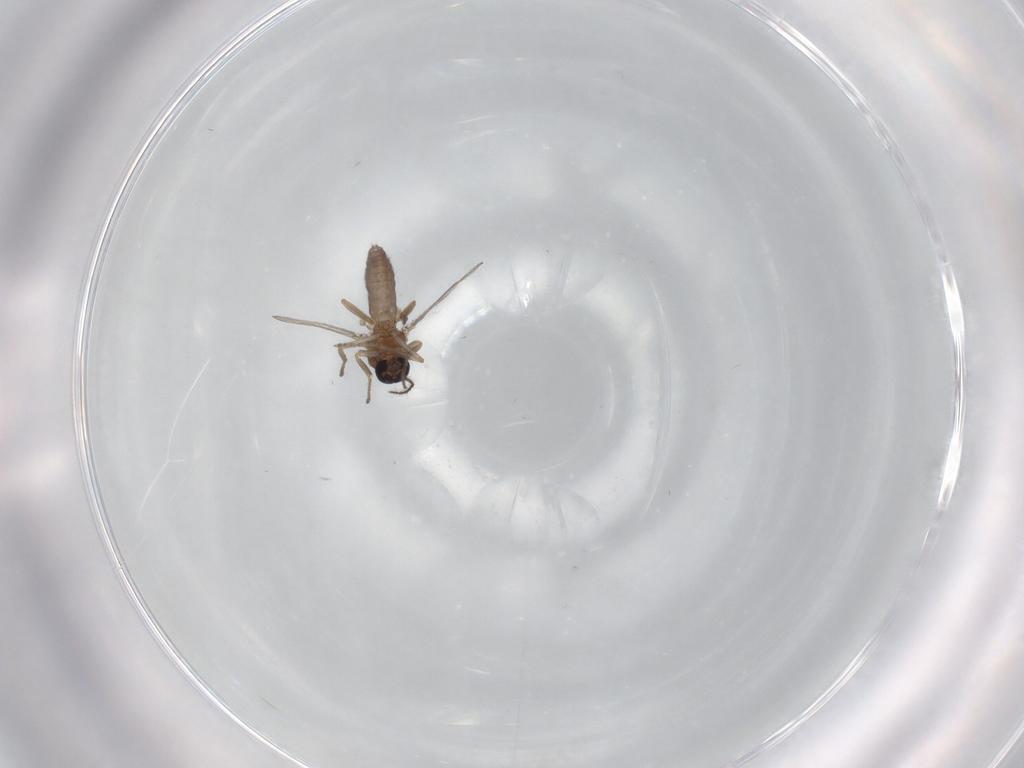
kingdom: Animalia
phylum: Arthropoda
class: Insecta
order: Diptera
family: Ceratopogonidae
